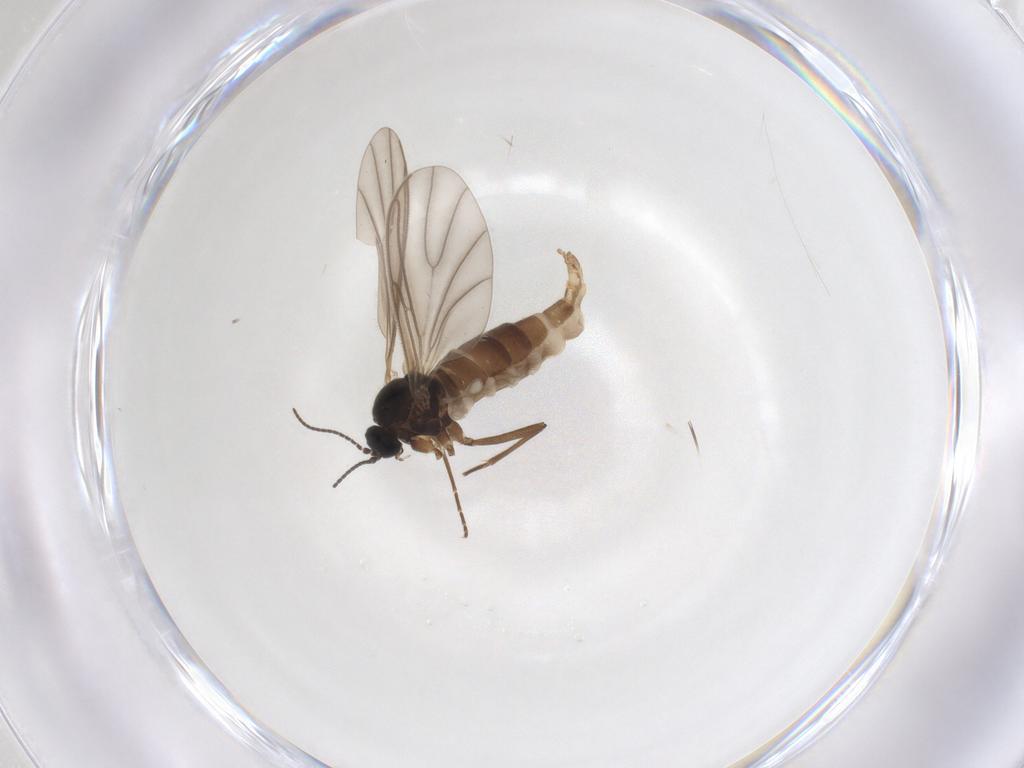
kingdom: Animalia
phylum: Arthropoda
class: Insecta
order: Diptera
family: Sciaridae
